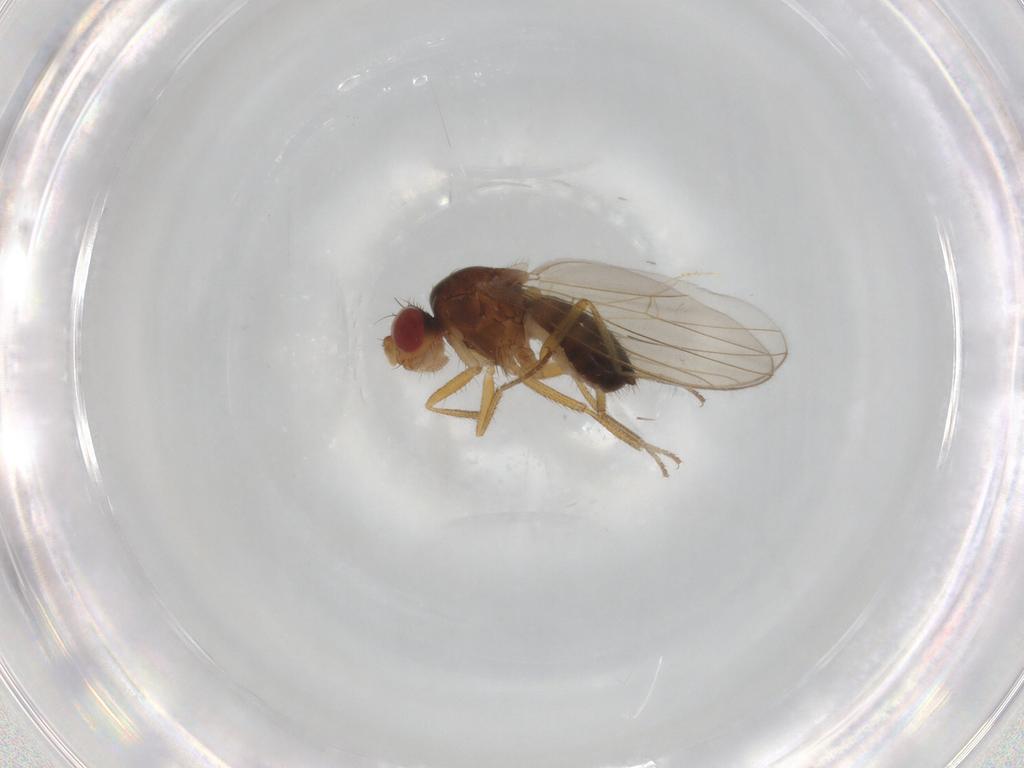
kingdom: Animalia
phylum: Arthropoda
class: Insecta
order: Diptera
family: Drosophilidae
